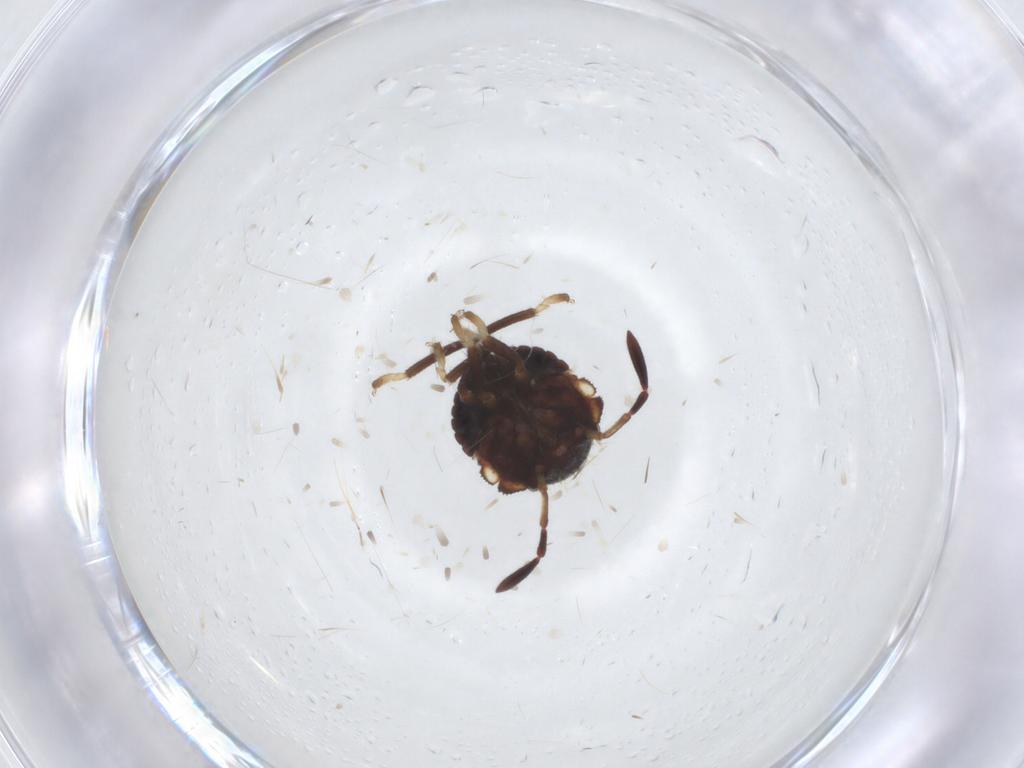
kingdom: Animalia
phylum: Arthropoda
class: Insecta
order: Hemiptera
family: Pentatomidae
